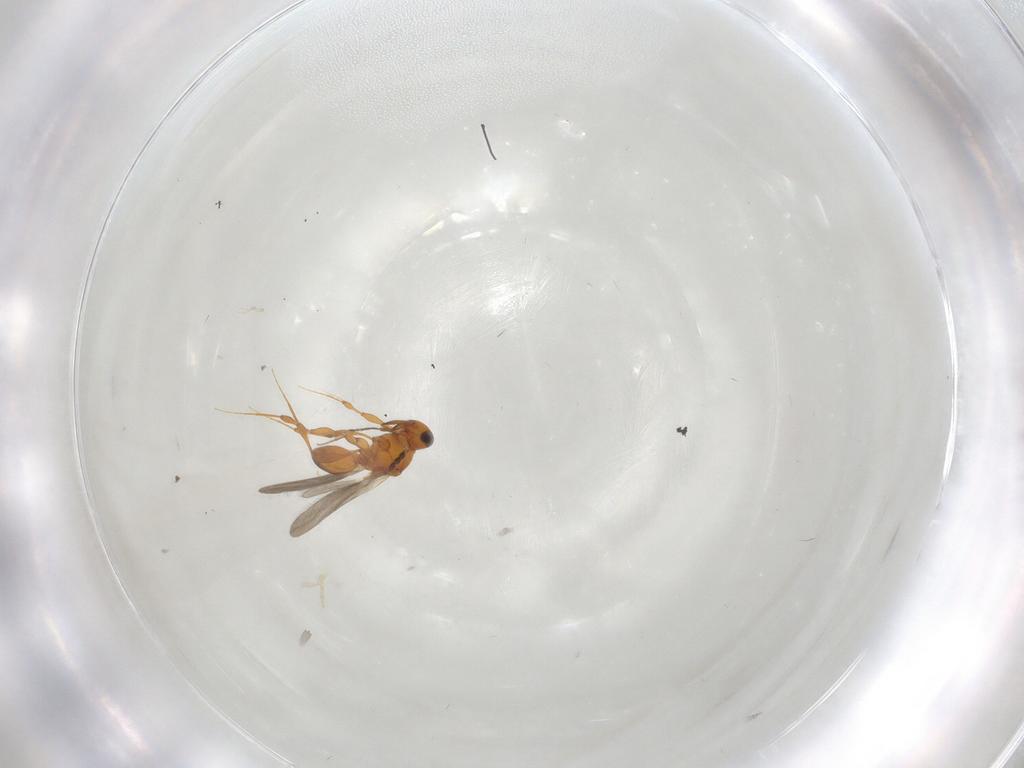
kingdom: Animalia
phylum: Arthropoda
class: Insecta
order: Hymenoptera
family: Platygastridae
